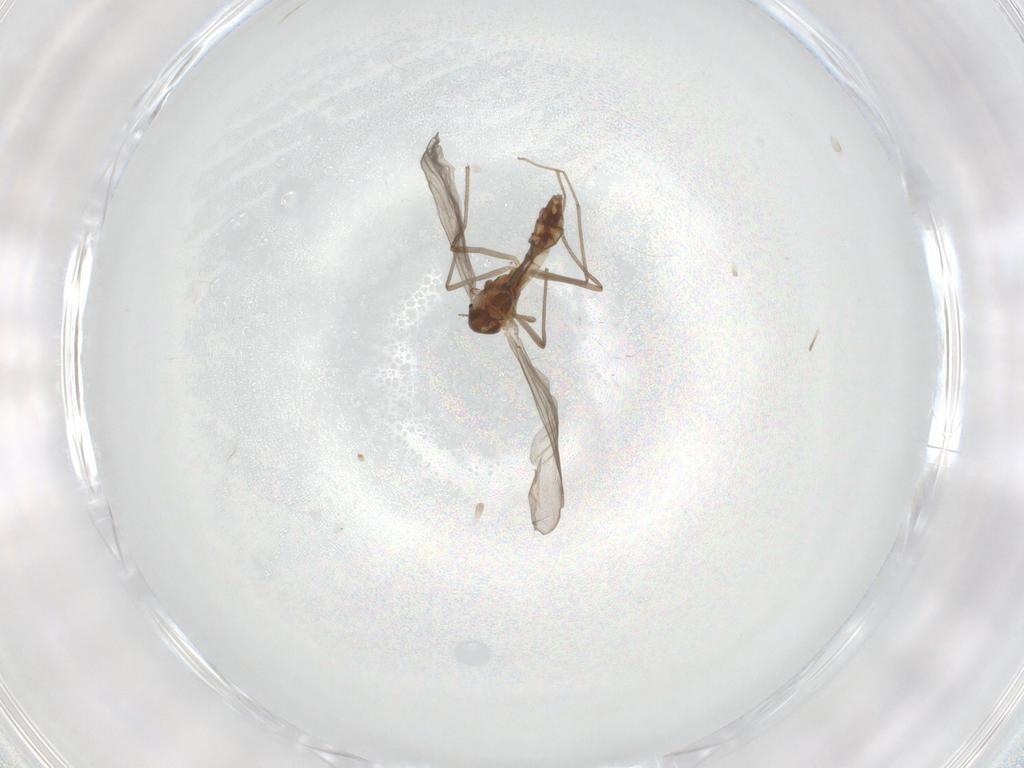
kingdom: Animalia
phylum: Arthropoda
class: Insecta
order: Diptera
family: Chironomidae
